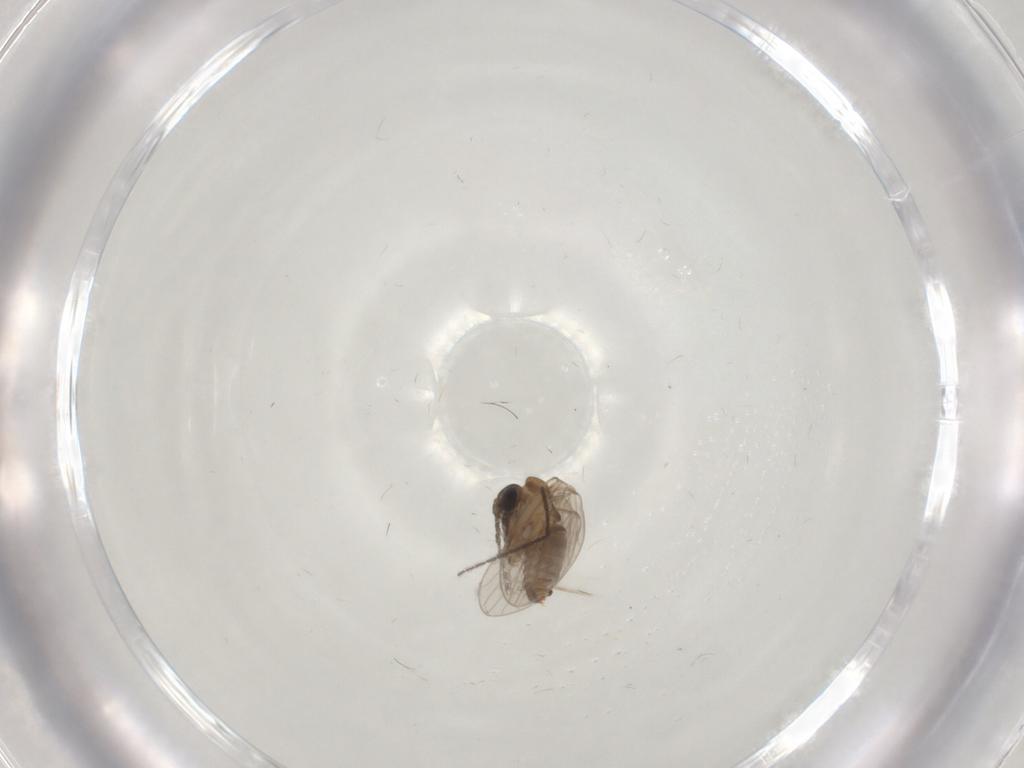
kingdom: Animalia
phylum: Arthropoda
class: Insecta
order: Diptera
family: Sciaridae
